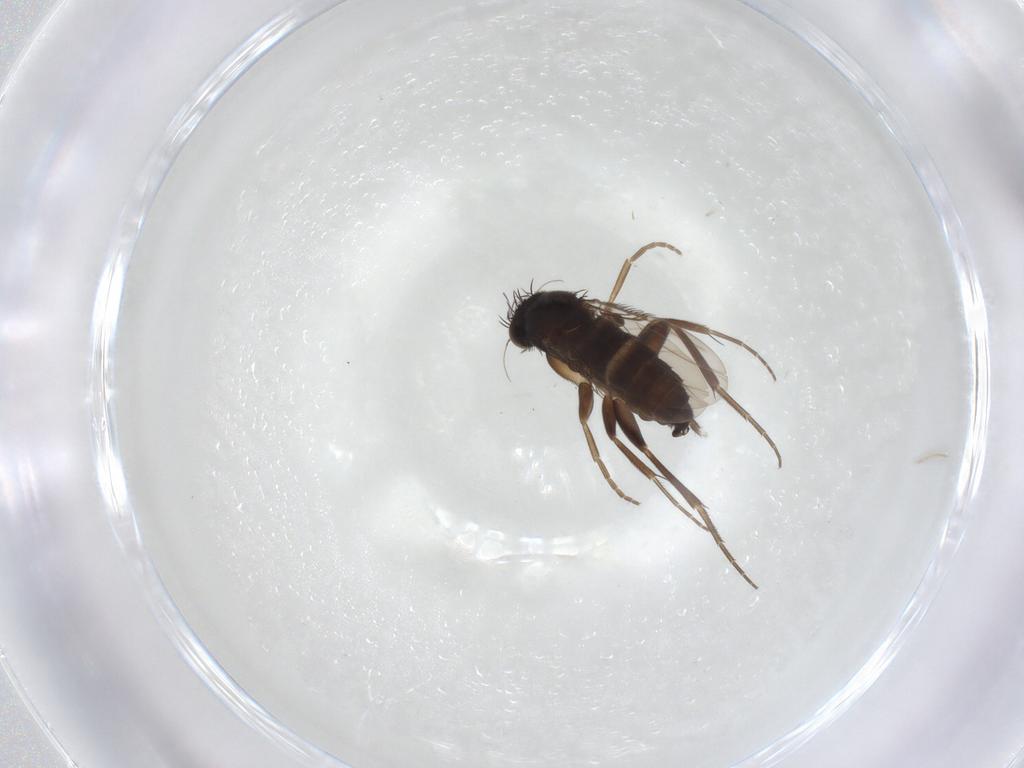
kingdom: Animalia
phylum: Arthropoda
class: Insecta
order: Diptera
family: Phoridae
